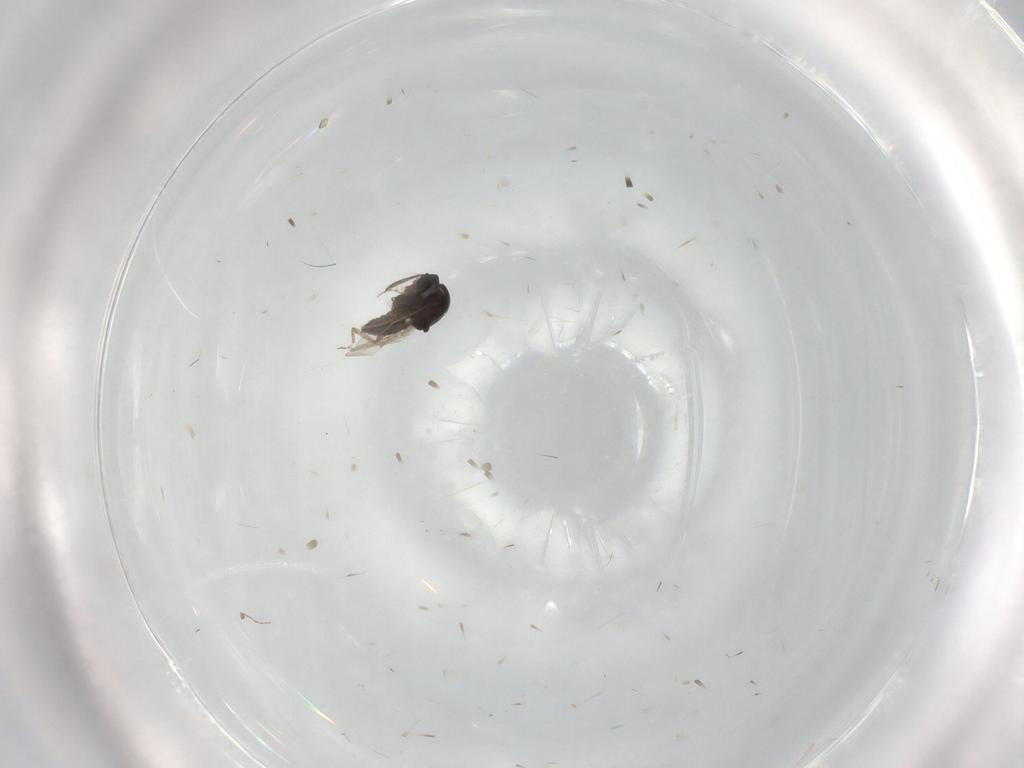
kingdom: Animalia
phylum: Arthropoda
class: Insecta
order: Diptera
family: Ceratopogonidae
